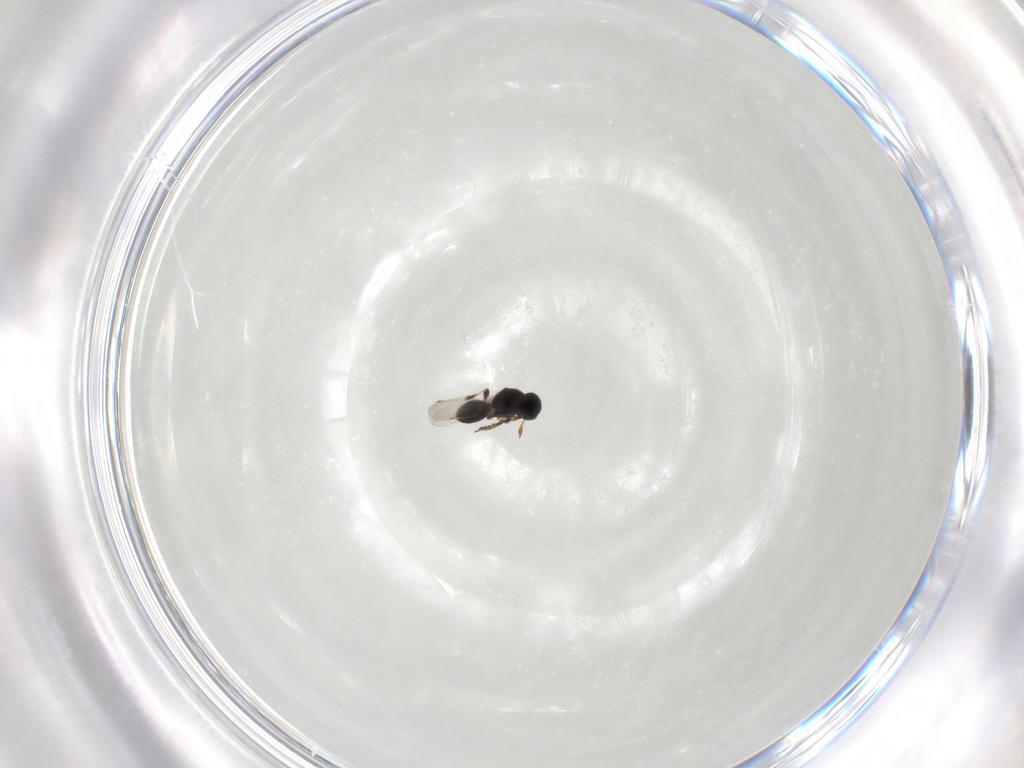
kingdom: Animalia
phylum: Arthropoda
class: Insecta
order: Hymenoptera
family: Platygastridae
